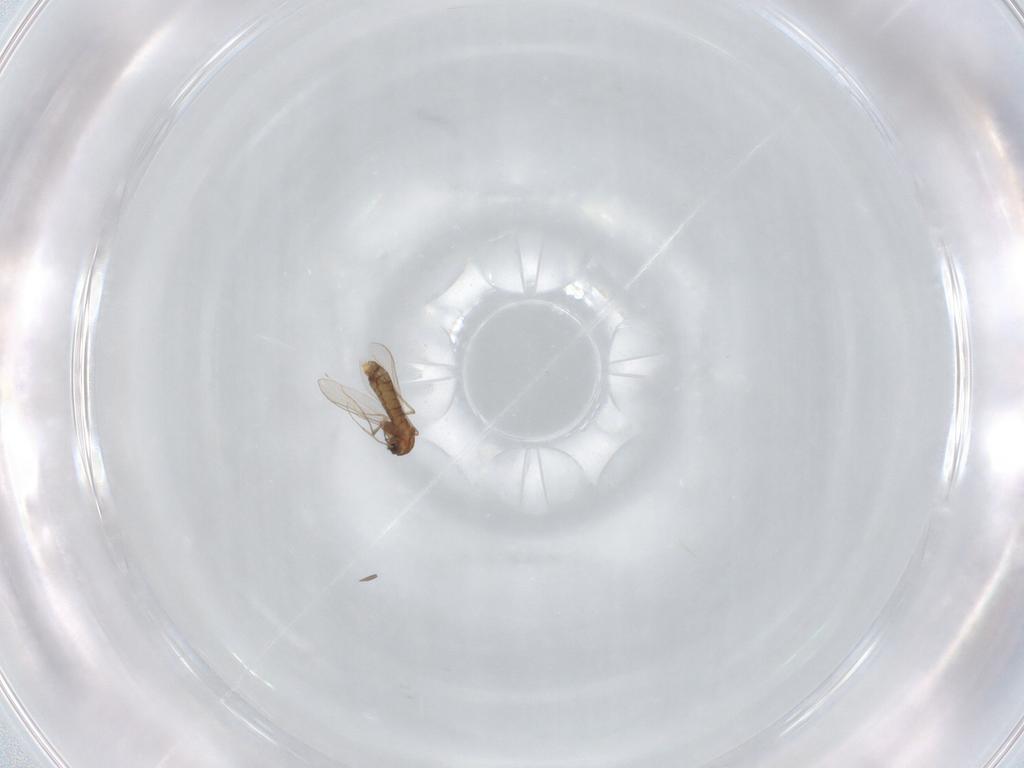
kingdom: Animalia
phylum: Arthropoda
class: Insecta
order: Diptera
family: Chironomidae
